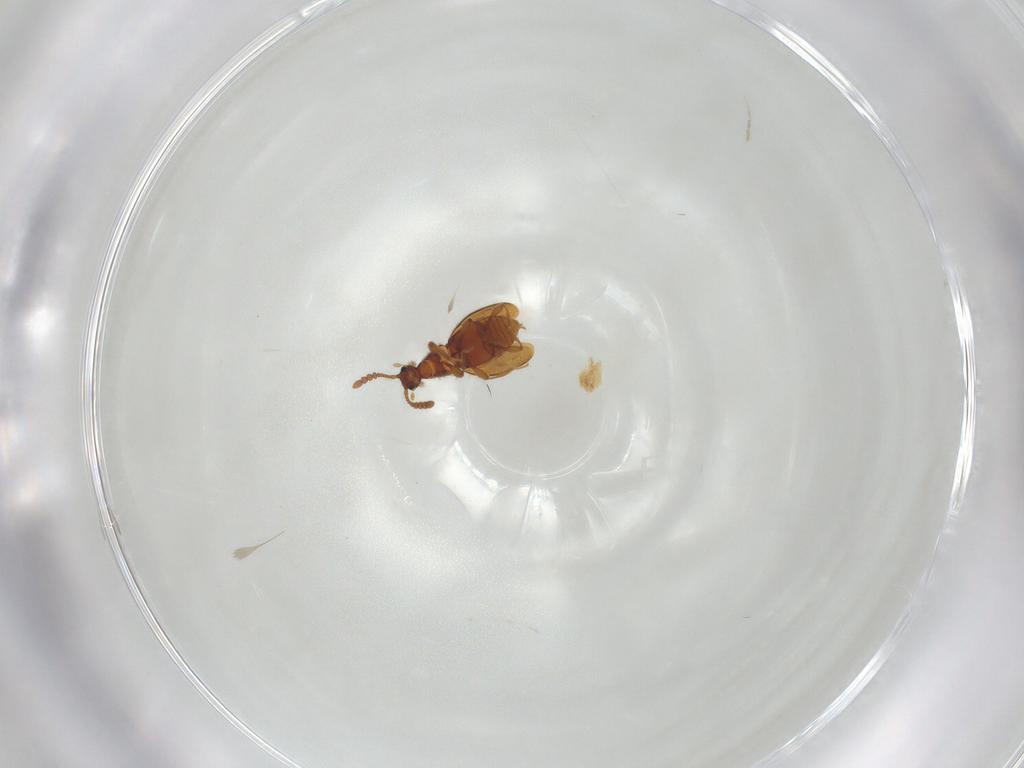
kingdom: Animalia
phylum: Arthropoda
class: Insecta
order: Coleoptera
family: Staphylinidae
